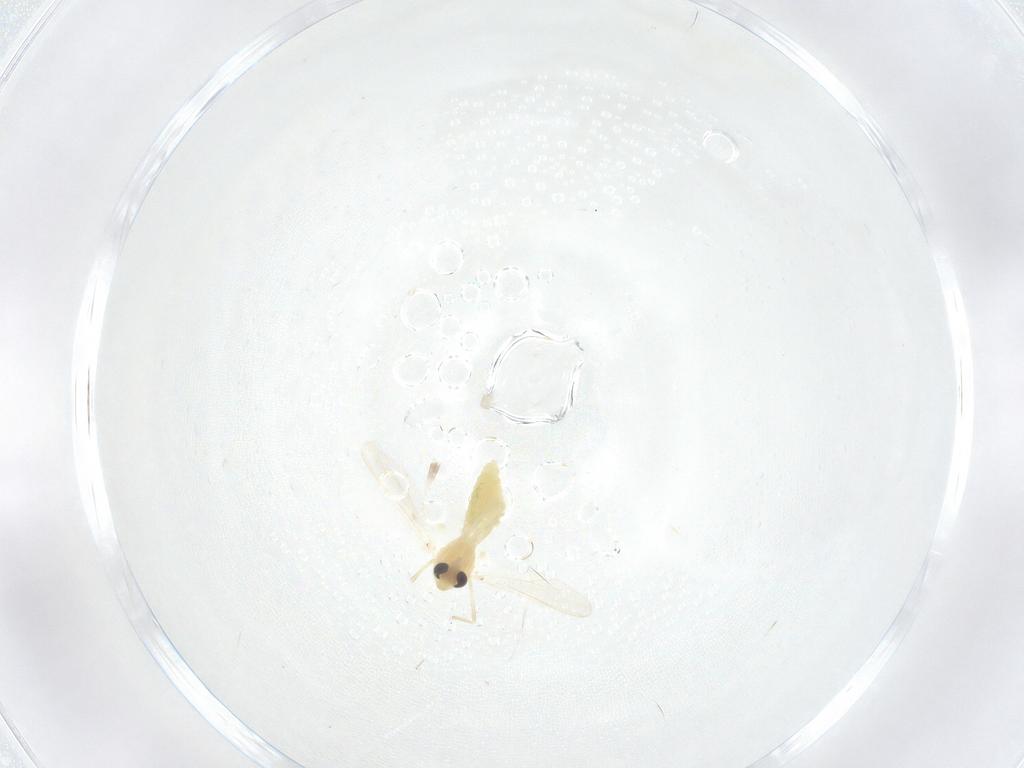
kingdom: Animalia
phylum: Arthropoda
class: Insecta
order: Diptera
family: Chironomidae
